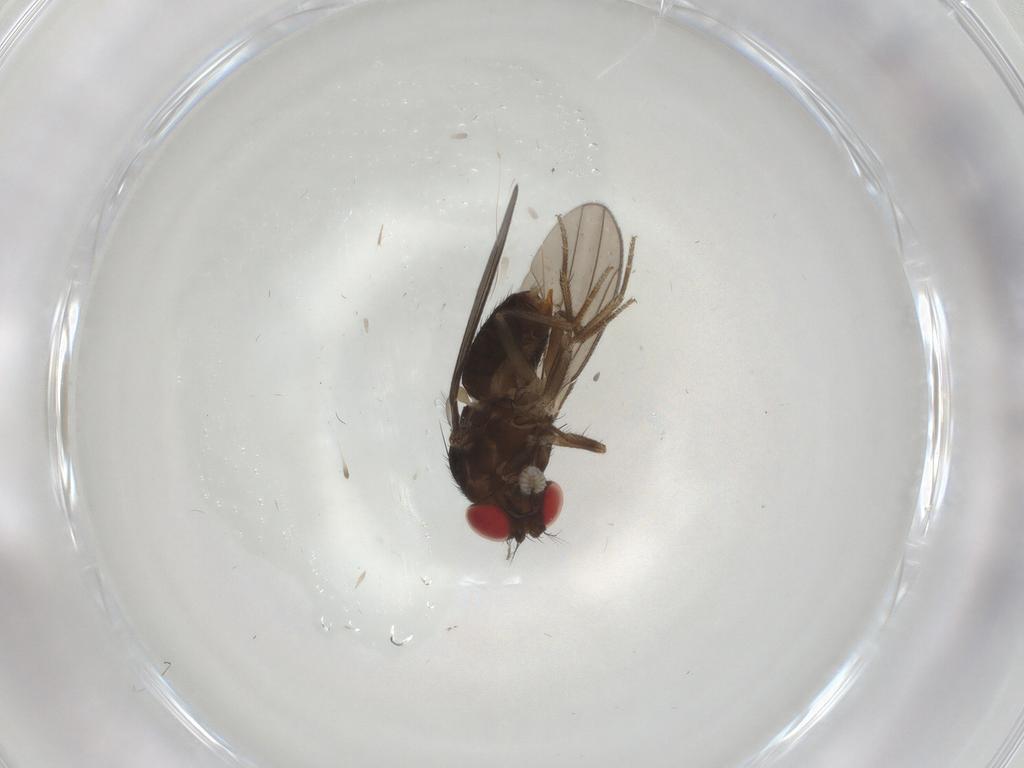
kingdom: Animalia
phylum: Arthropoda
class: Insecta
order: Diptera
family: Drosophilidae
